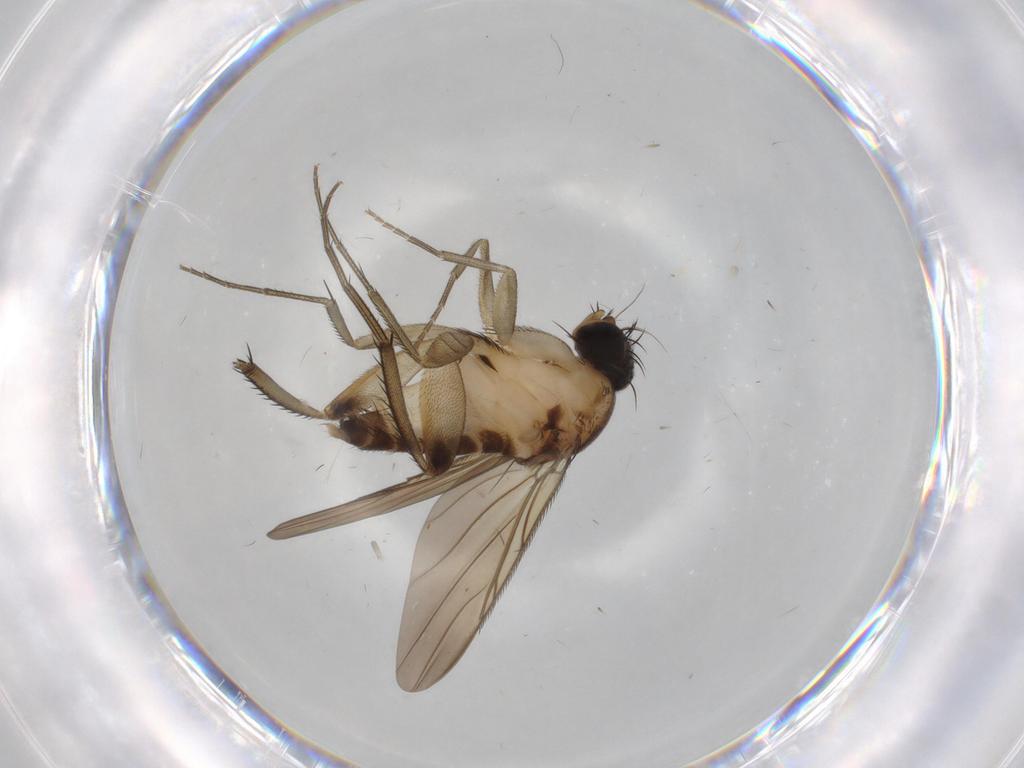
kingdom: Animalia
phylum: Arthropoda
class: Insecta
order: Diptera
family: Phoridae
